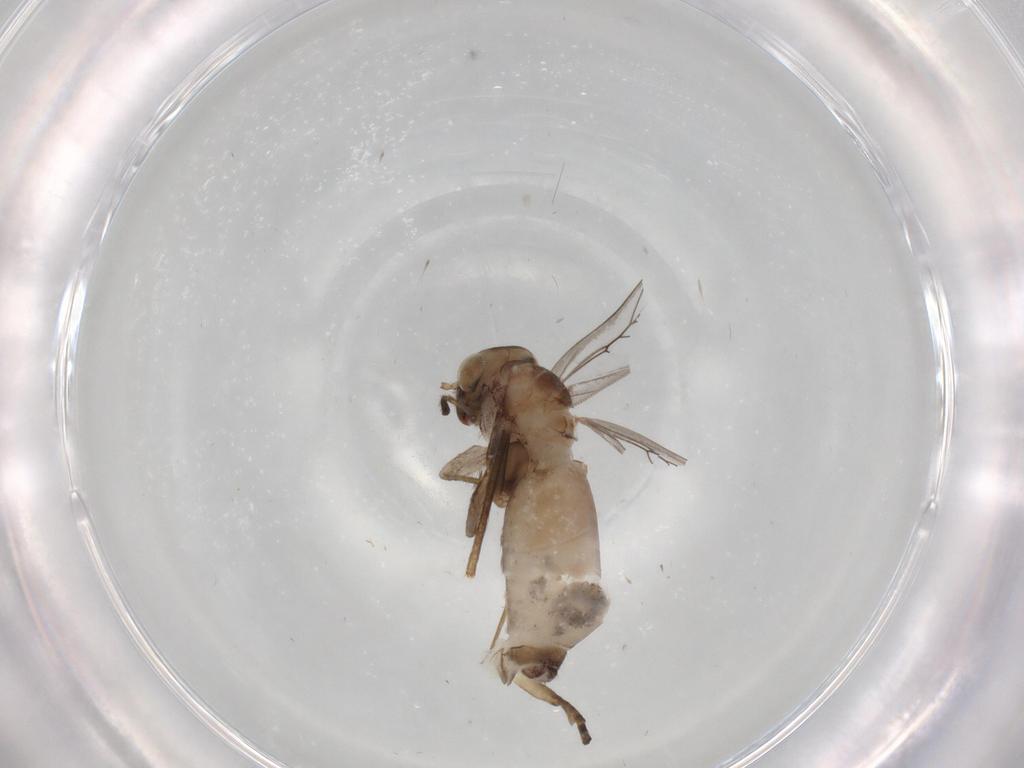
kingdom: Animalia
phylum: Arthropoda
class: Insecta
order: Psocodea
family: Lepidopsocidae
